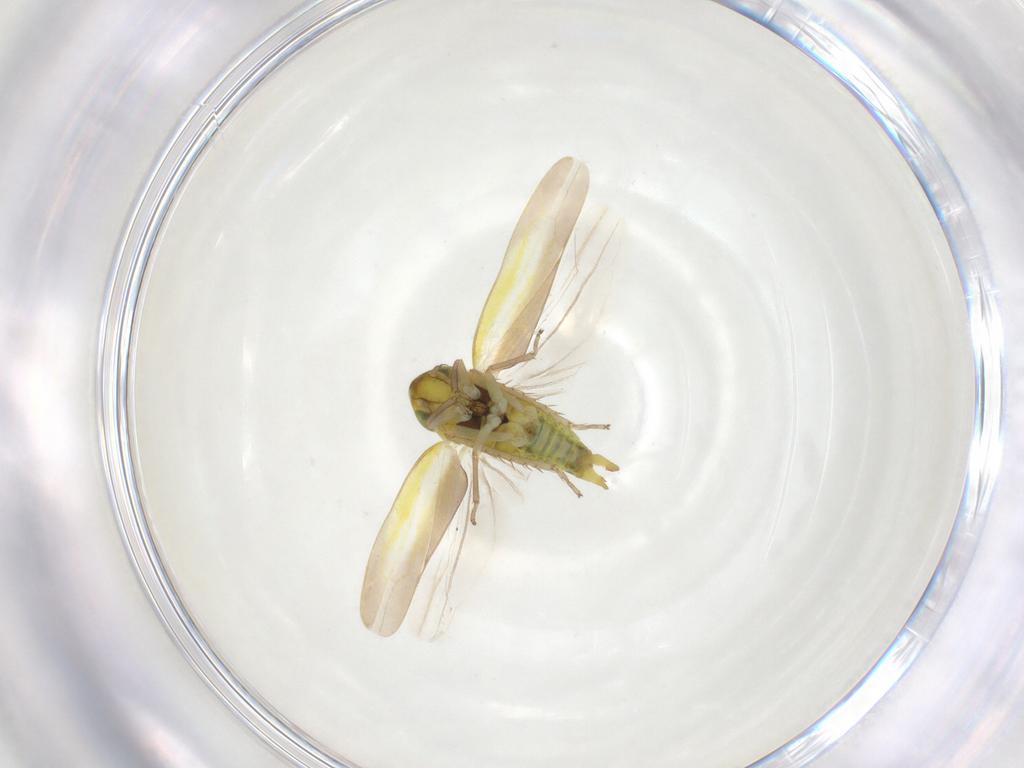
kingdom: Animalia
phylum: Arthropoda
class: Insecta
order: Hemiptera
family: Cicadellidae
